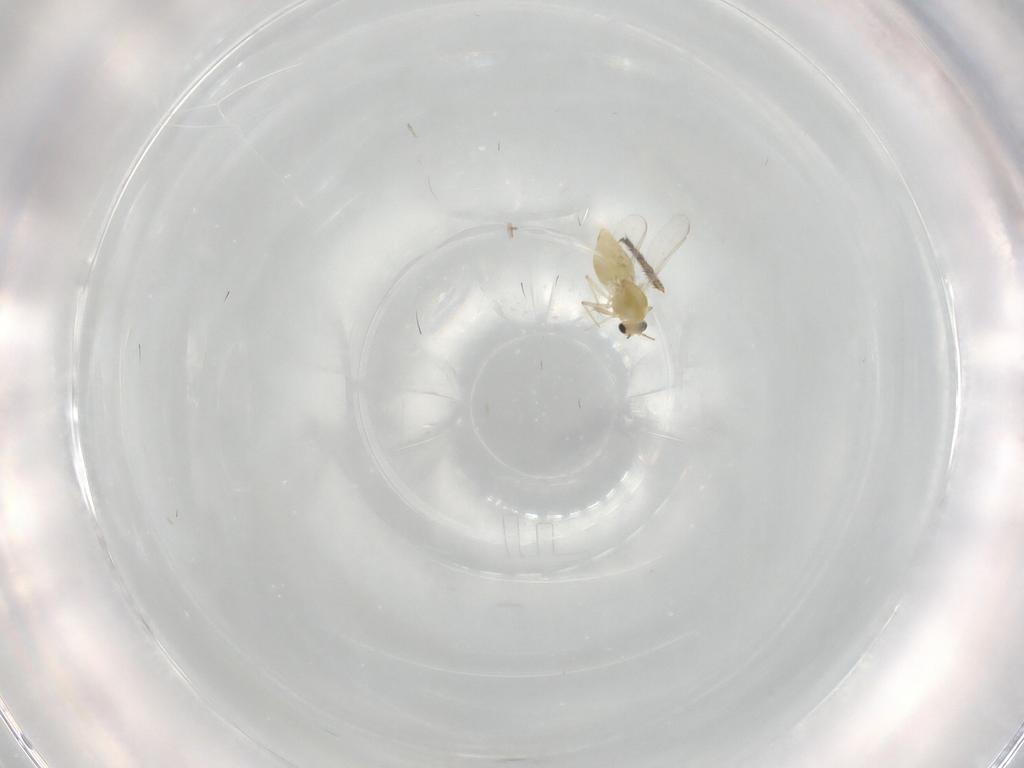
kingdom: Animalia
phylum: Arthropoda
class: Insecta
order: Diptera
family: Chironomidae
